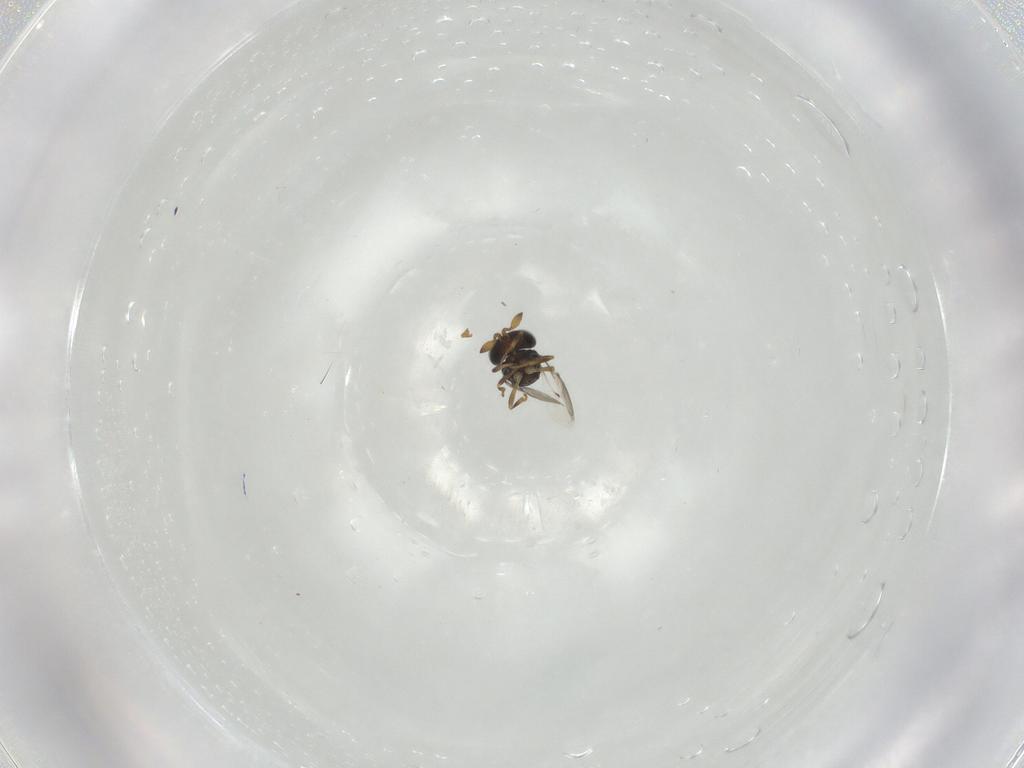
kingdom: Animalia
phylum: Arthropoda
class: Insecta
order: Hymenoptera
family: Scelionidae
